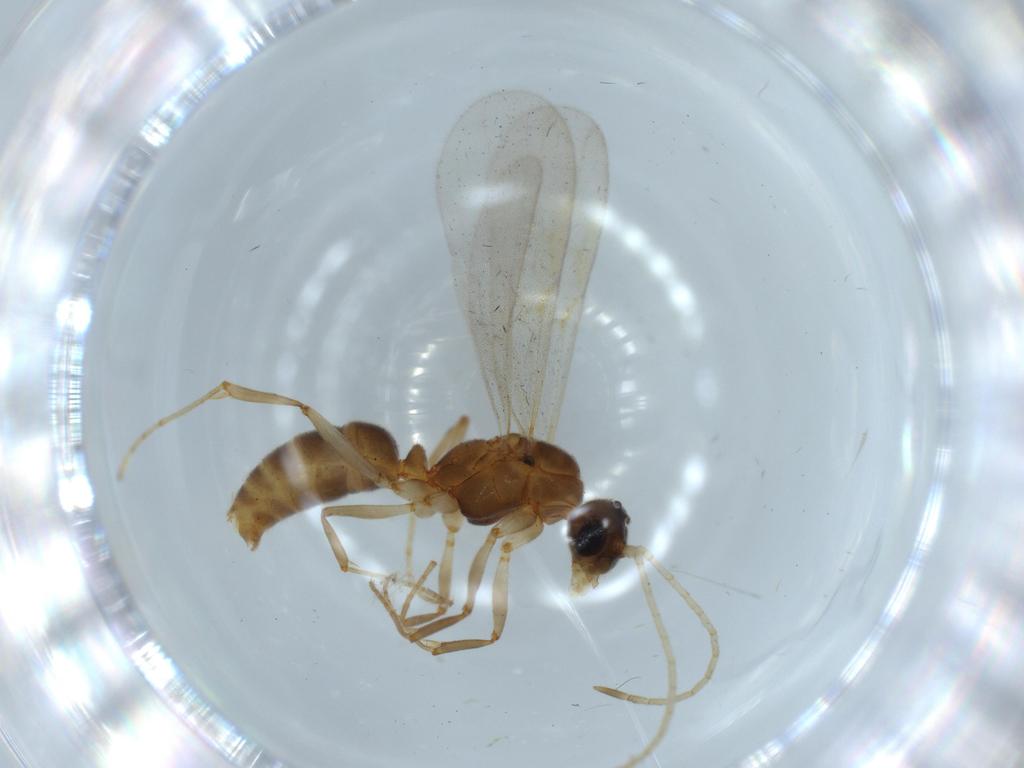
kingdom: Animalia
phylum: Arthropoda
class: Insecta
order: Hymenoptera
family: Formicidae
